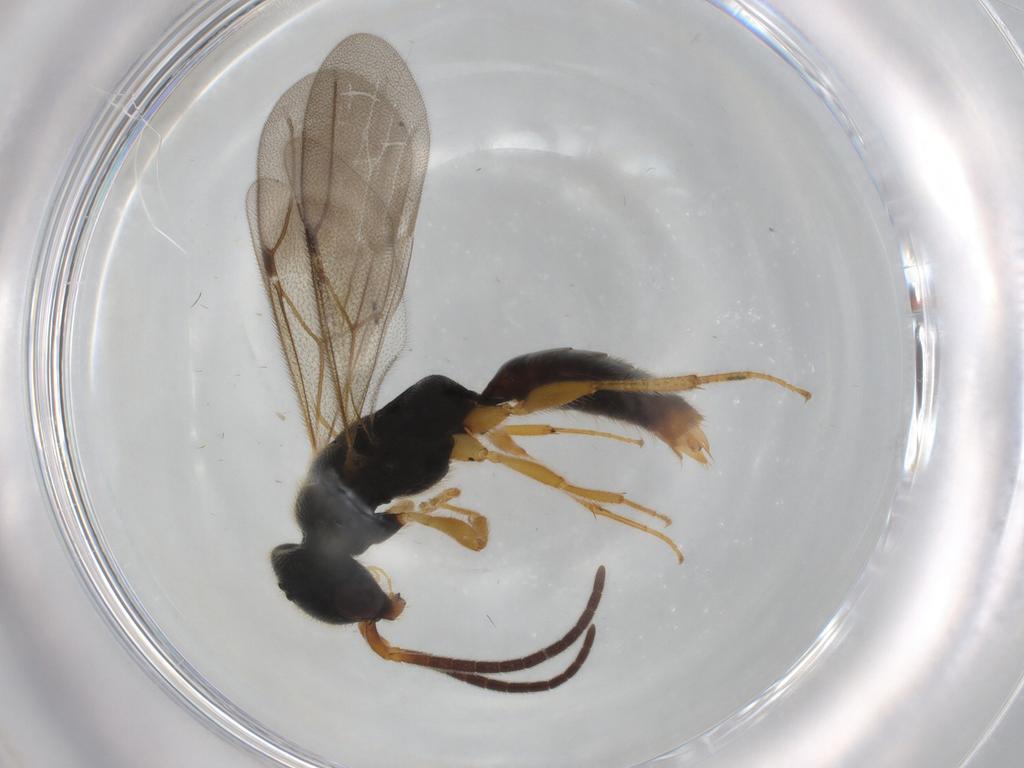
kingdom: Animalia
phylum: Arthropoda
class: Insecta
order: Hymenoptera
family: Bethylidae
